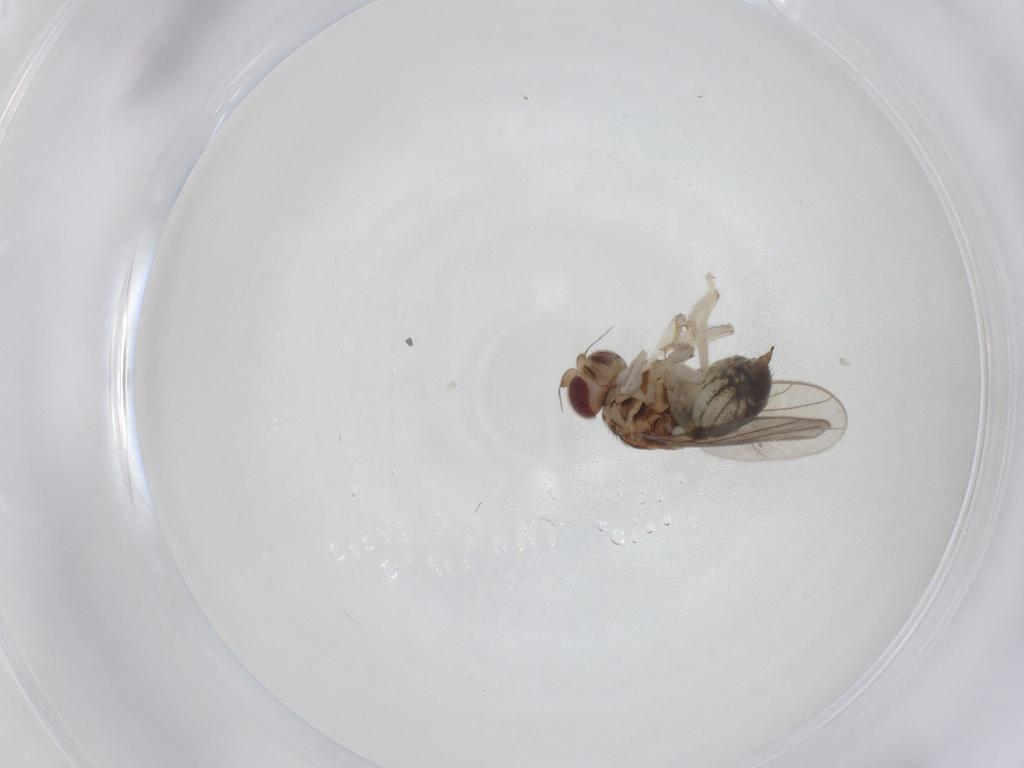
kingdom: Animalia
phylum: Arthropoda
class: Insecta
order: Diptera
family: Chloropidae
